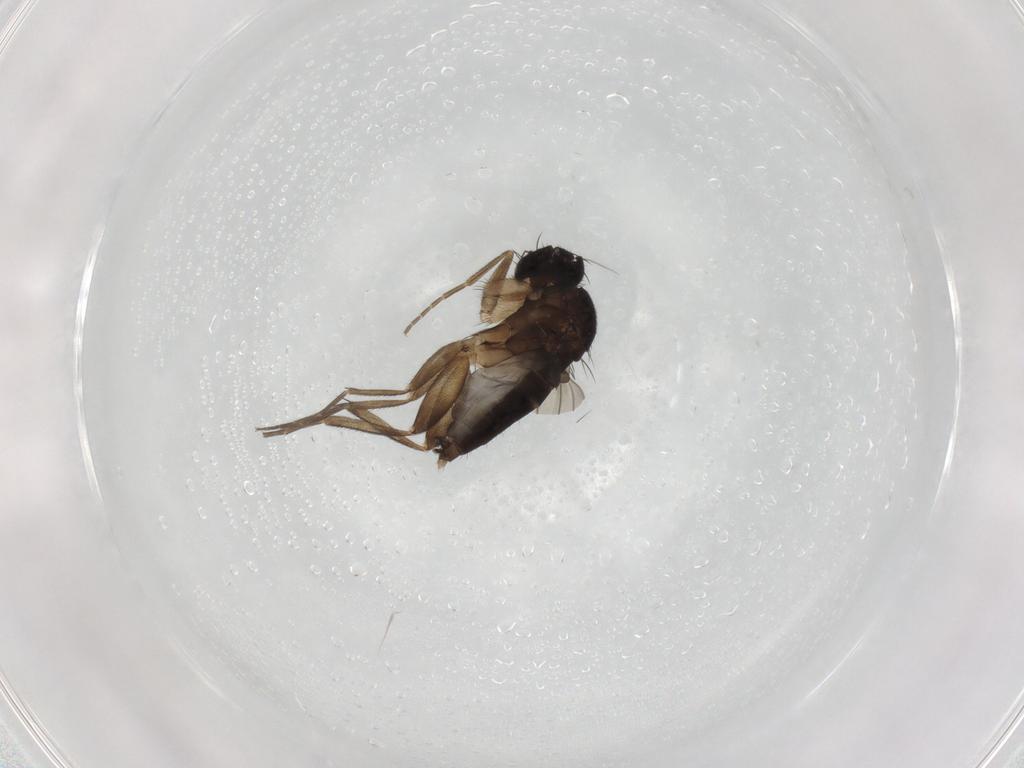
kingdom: Animalia
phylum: Arthropoda
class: Insecta
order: Diptera
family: Phoridae
